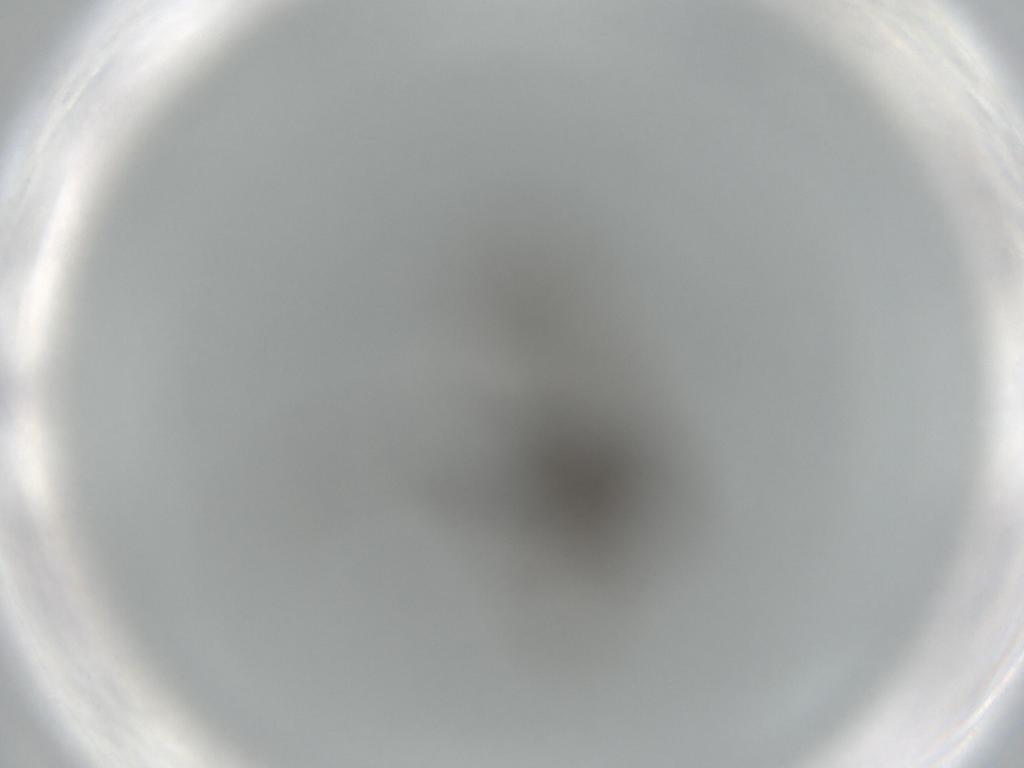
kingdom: Animalia
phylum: Arthropoda
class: Insecta
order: Diptera
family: Sciaridae
